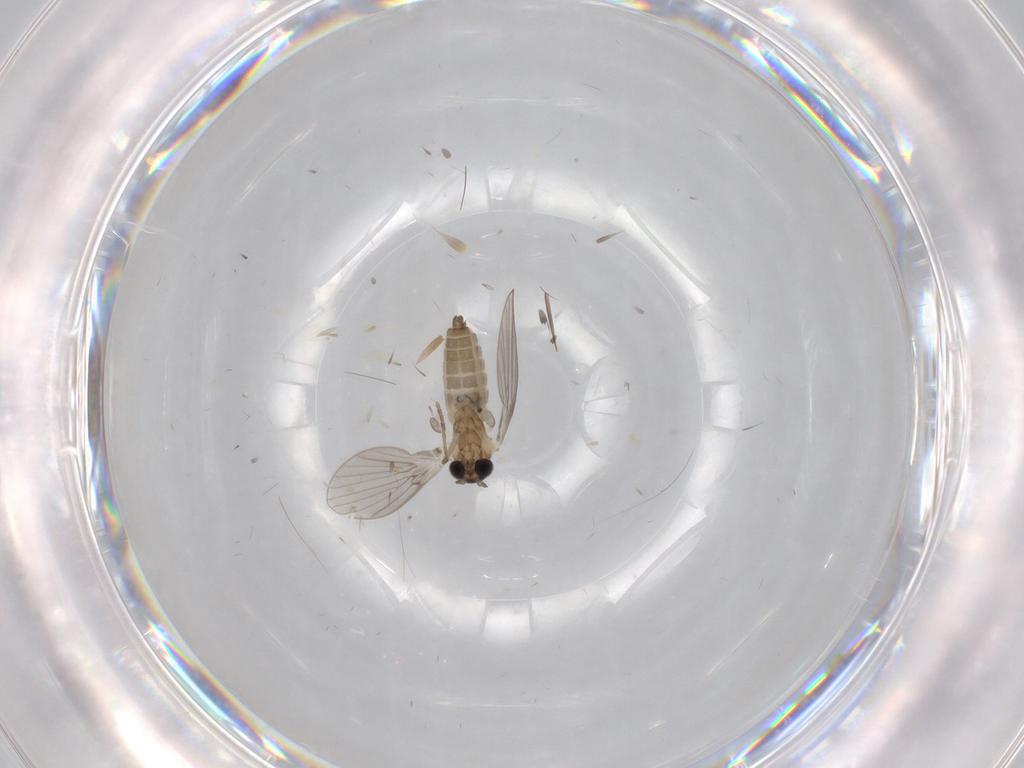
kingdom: Animalia
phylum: Arthropoda
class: Insecta
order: Diptera
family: Limoniidae
